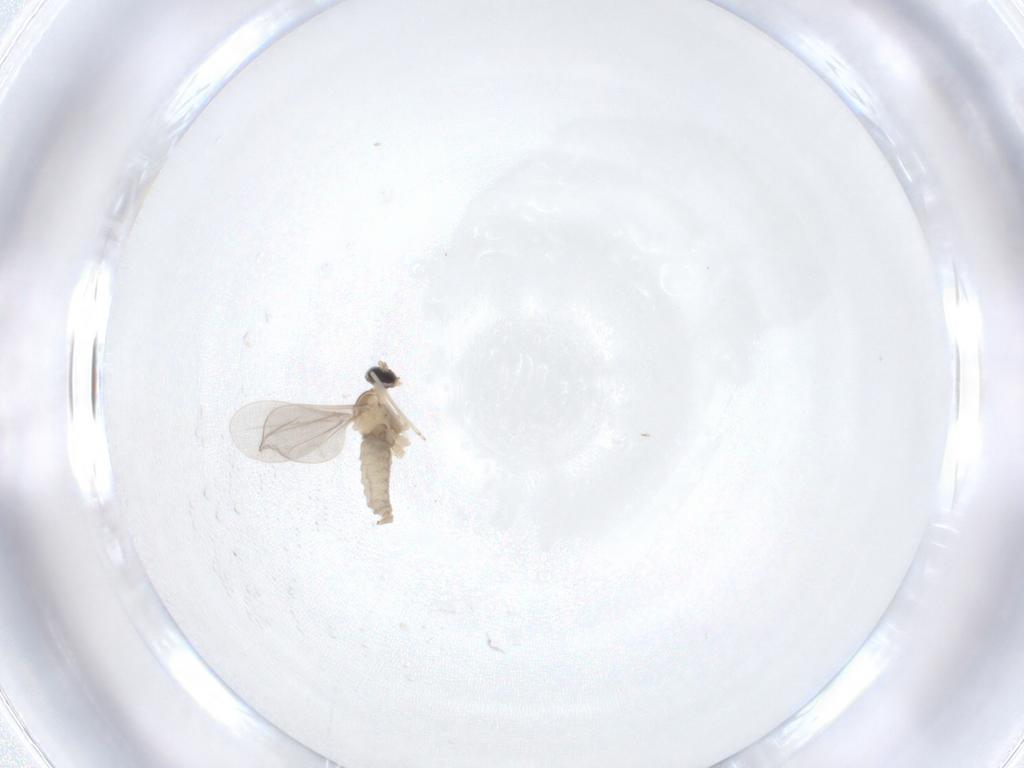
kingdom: Animalia
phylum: Arthropoda
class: Insecta
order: Diptera
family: Cecidomyiidae
